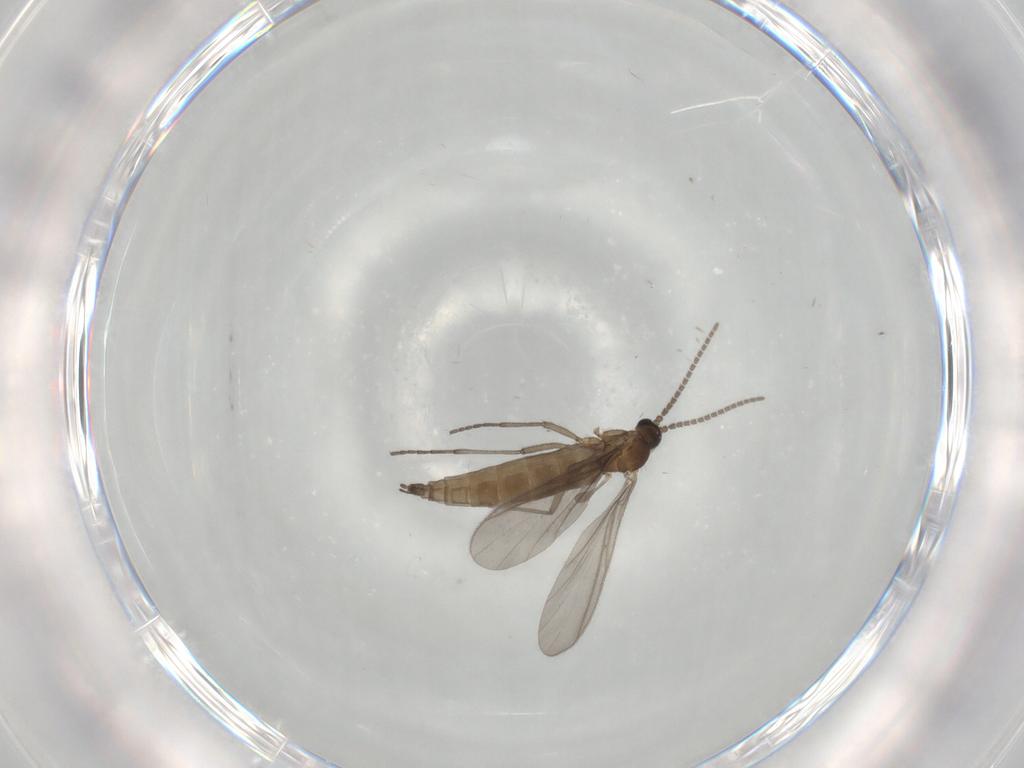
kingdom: Animalia
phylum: Arthropoda
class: Insecta
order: Diptera
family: Sciaridae
